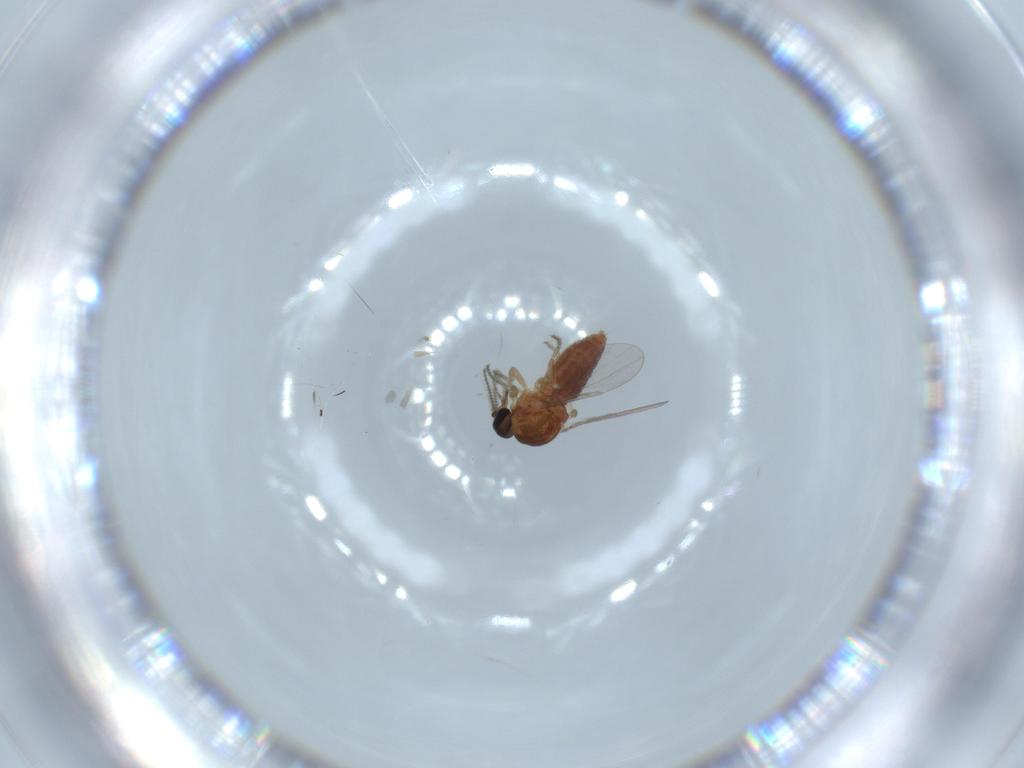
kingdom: Animalia
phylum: Arthropoda
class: Insecta
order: Diptera
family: Ceratopogonidae
